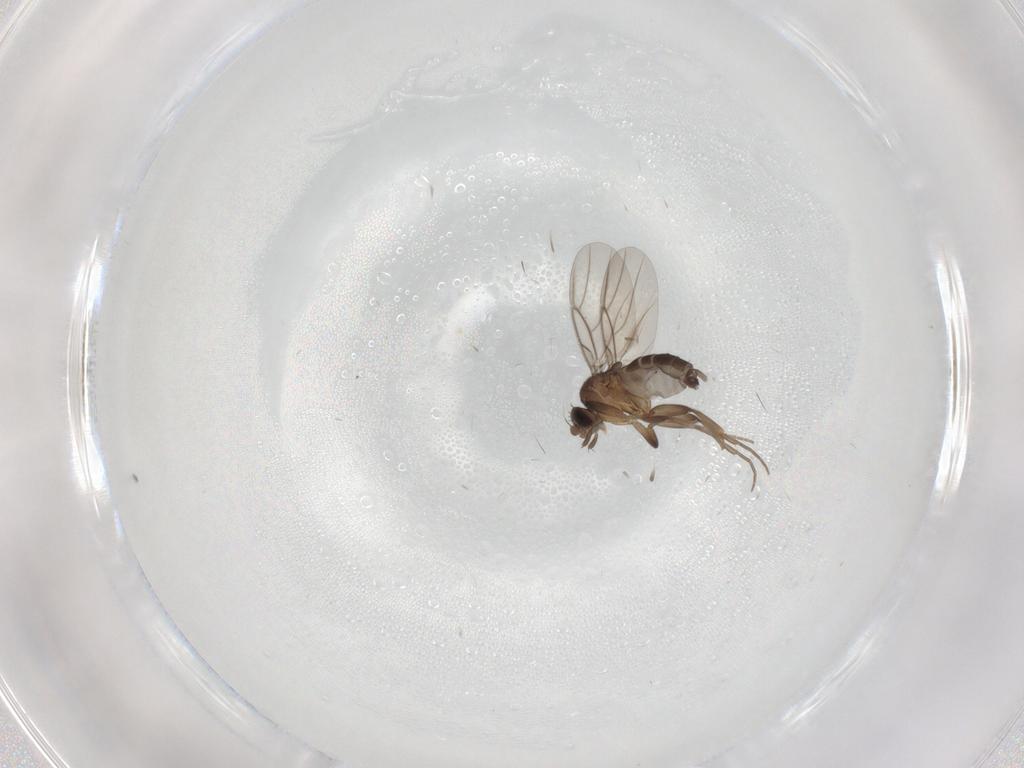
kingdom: Animalia
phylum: Arthropoda
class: Insecta
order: Diptera
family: Phoridae
